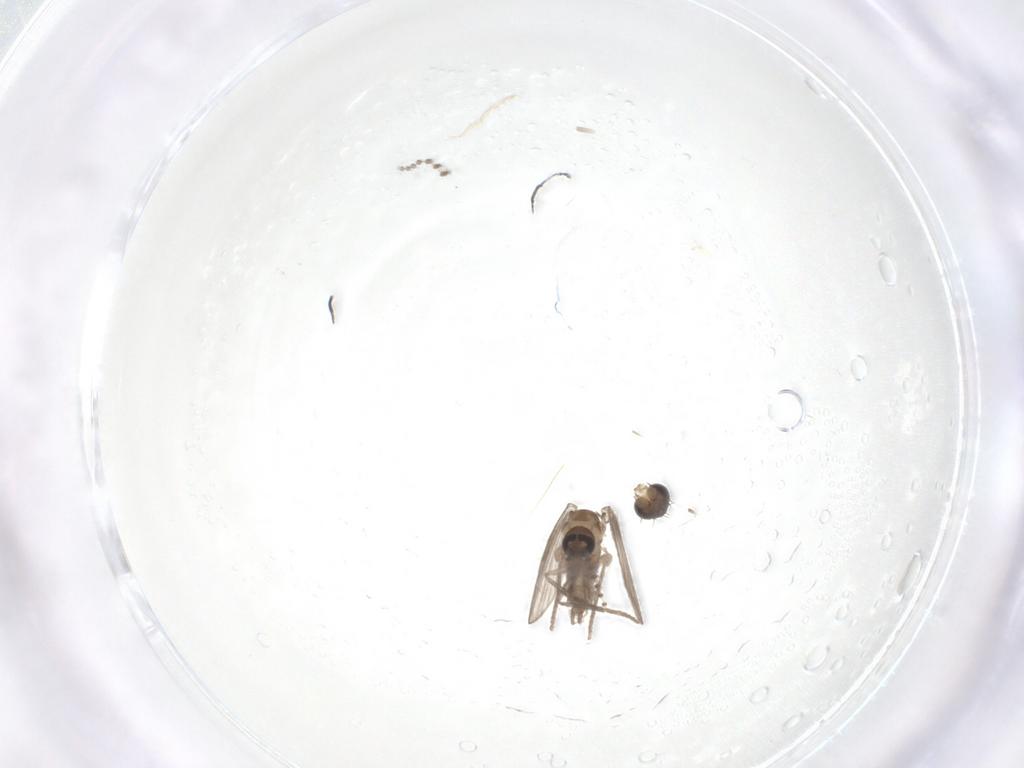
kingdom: Animalia
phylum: Arthropoda
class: Insecta
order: Diptera
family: Psychodidae
